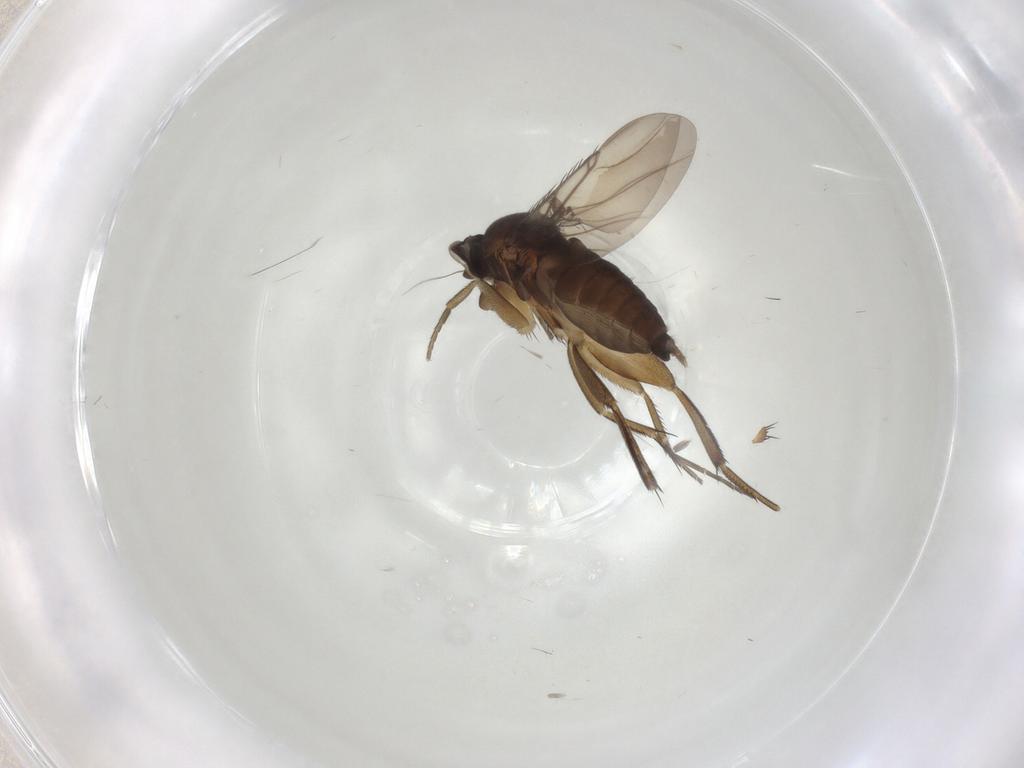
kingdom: Animalia
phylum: Arthropoda
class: Insecta
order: Diptera
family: Phoridae
